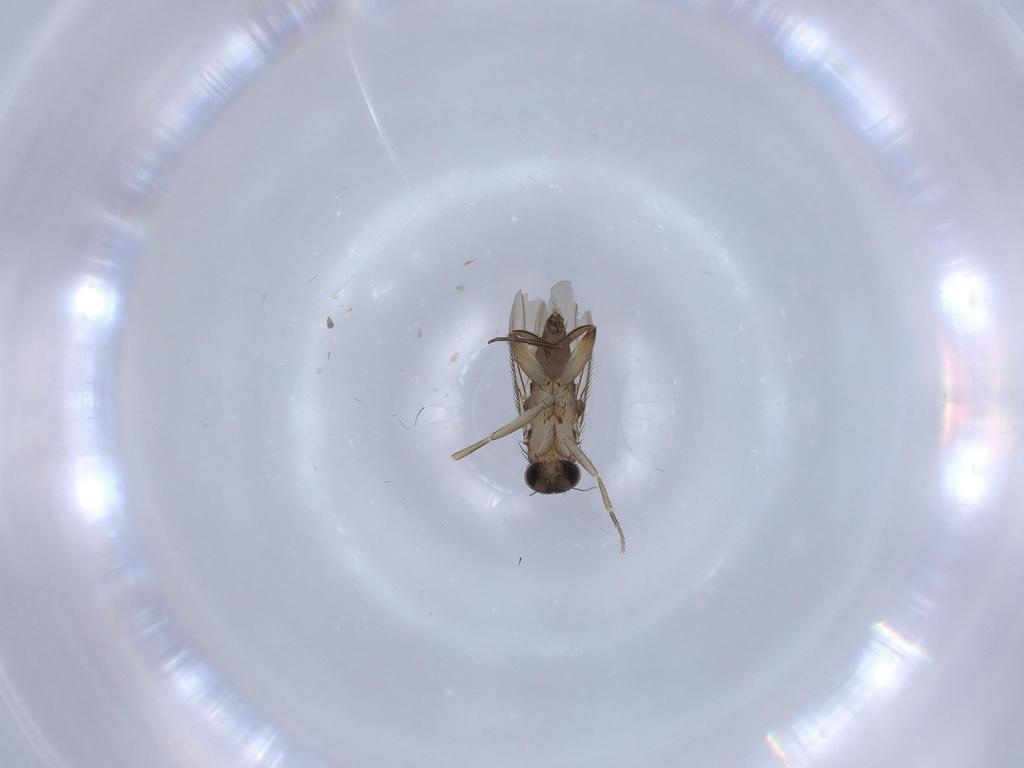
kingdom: Animalia
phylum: Arthropoda
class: Insecta
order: Diptera
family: Phoridae
